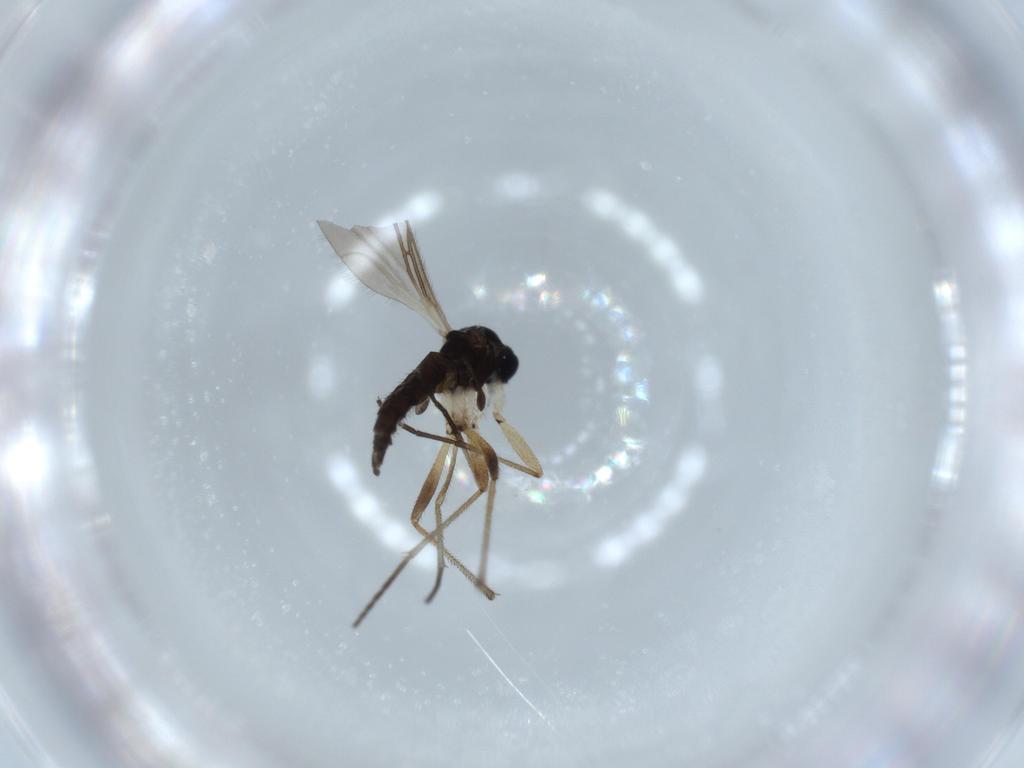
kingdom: Animalia
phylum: Arthropoda
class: Insecta
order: Diptera
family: Sciaridae
